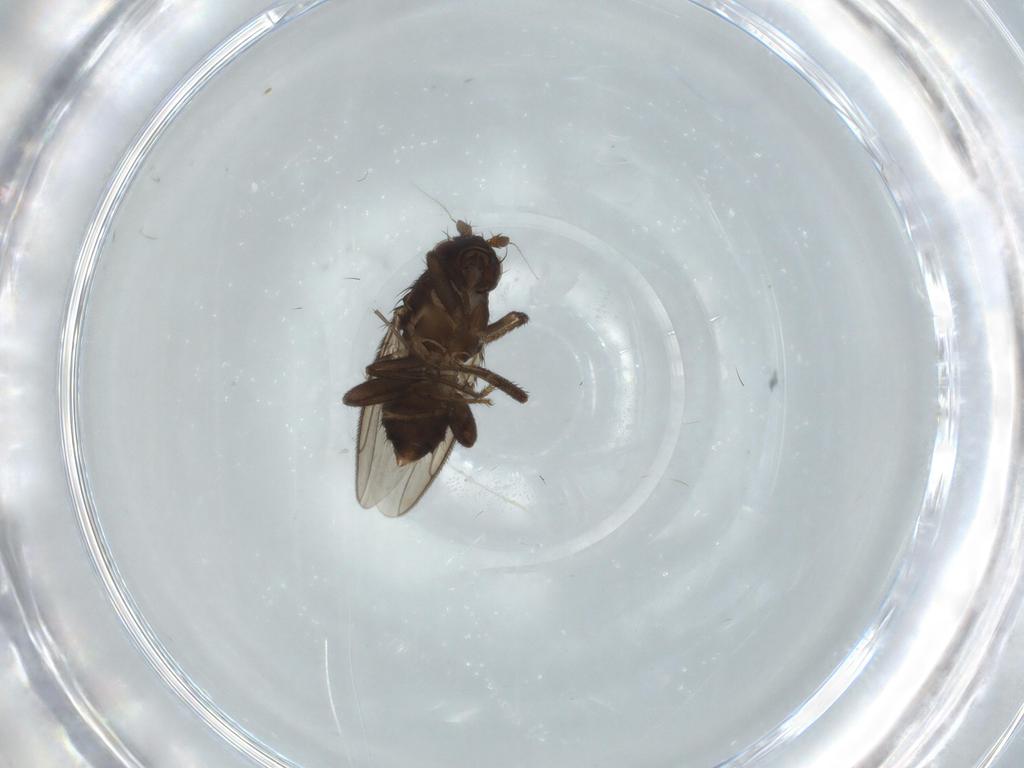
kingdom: Animalia
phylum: Arthropoda
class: Insecta
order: Diptera
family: Chironomidae
